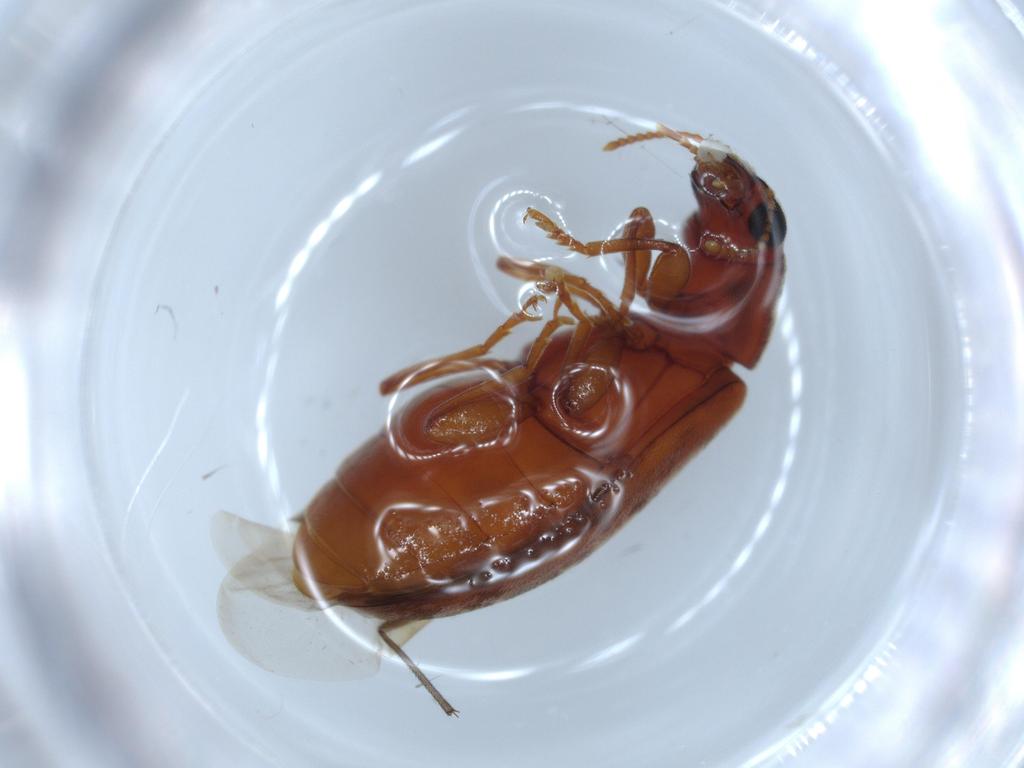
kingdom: Animalia
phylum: Arthropoda
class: Insecta
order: Coleoptera
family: Mycteridae
